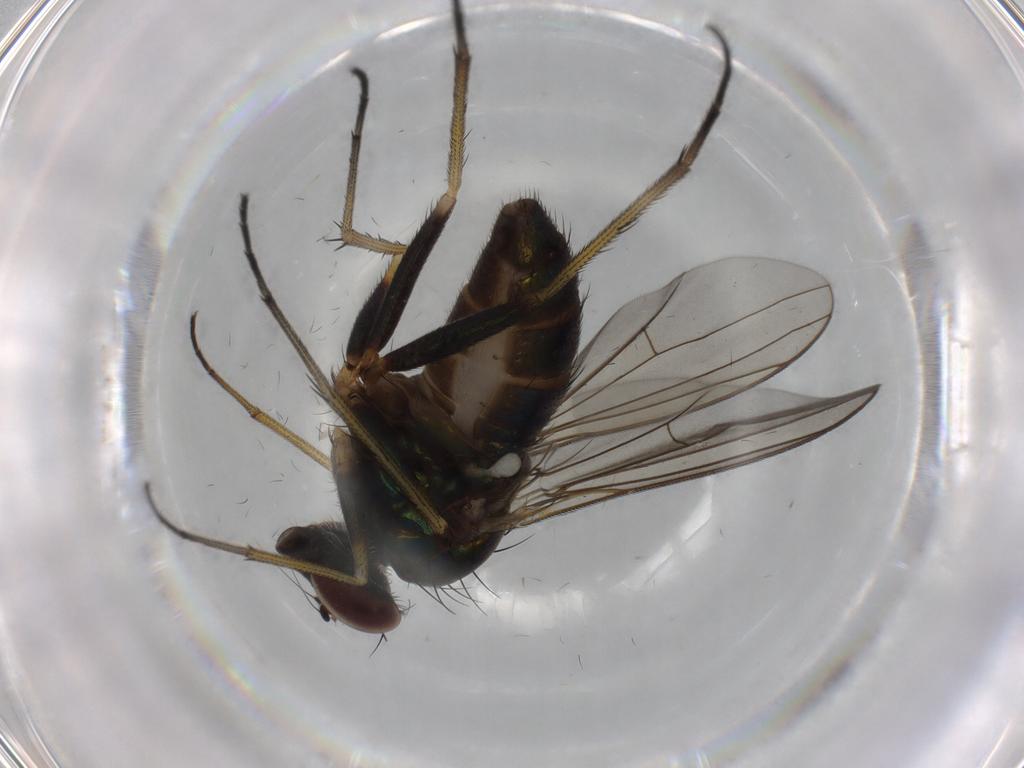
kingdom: Animalia
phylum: Arthropoda
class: Insecta
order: Diptera
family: Dolichopodidae
